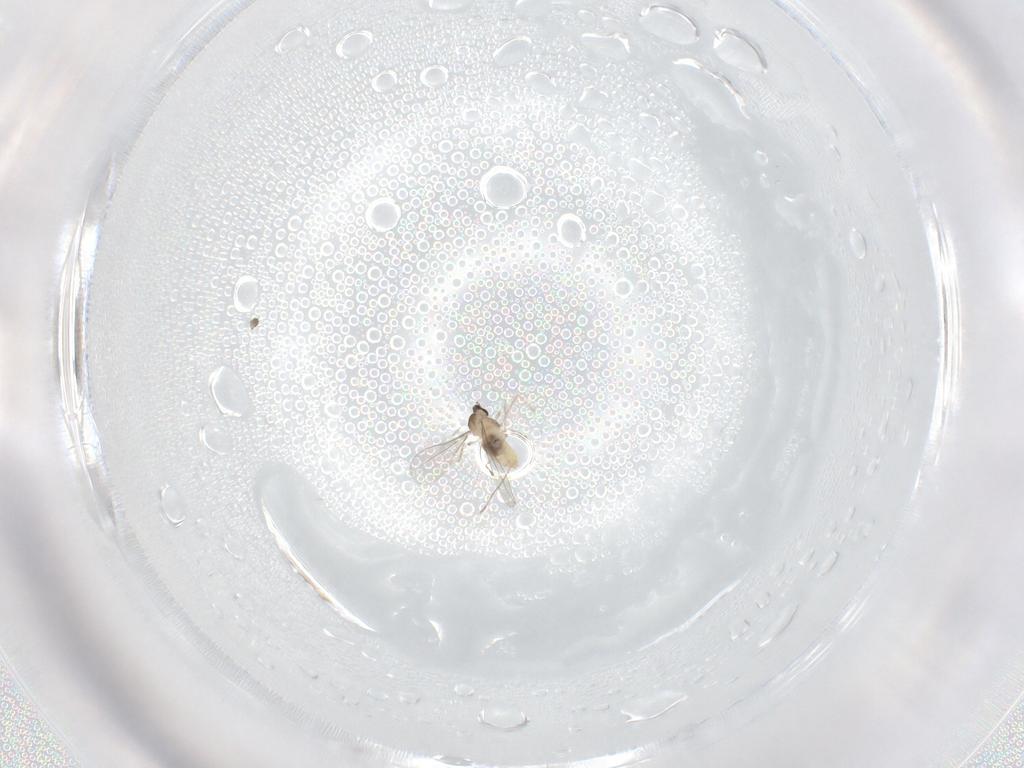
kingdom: Animalia
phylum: Arthropoda
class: Insecta
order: Diptera
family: Cecidomyiidae
